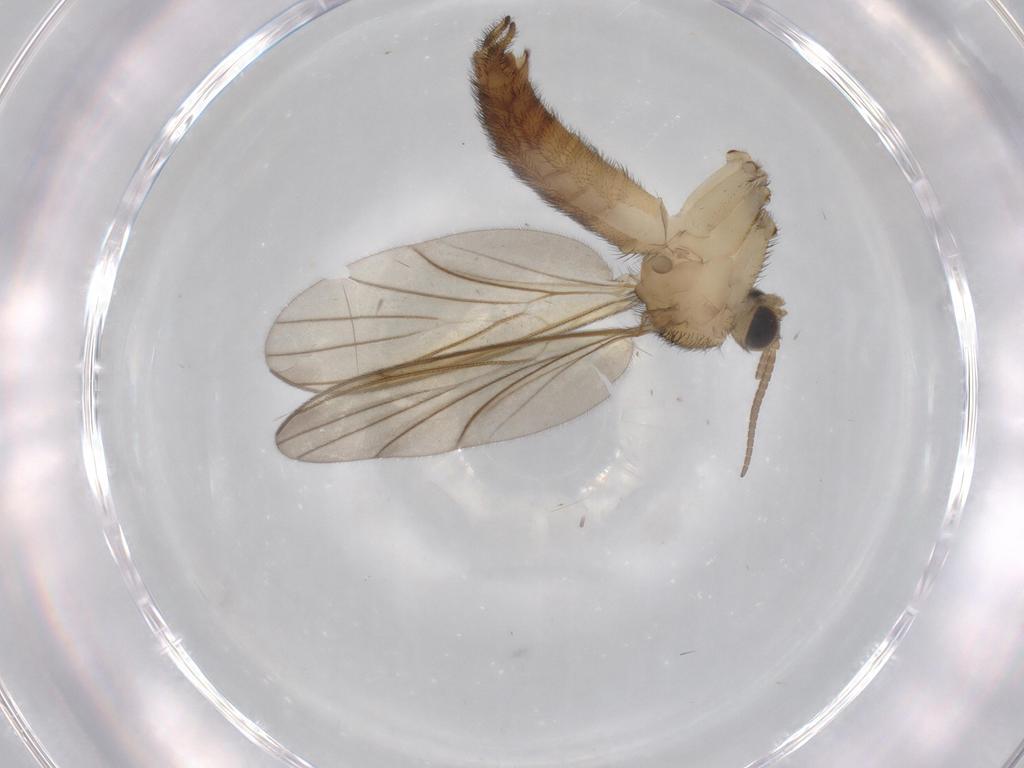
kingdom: Animalia
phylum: Arthropoda
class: Insecta
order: Diptera
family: Keroplatidae
